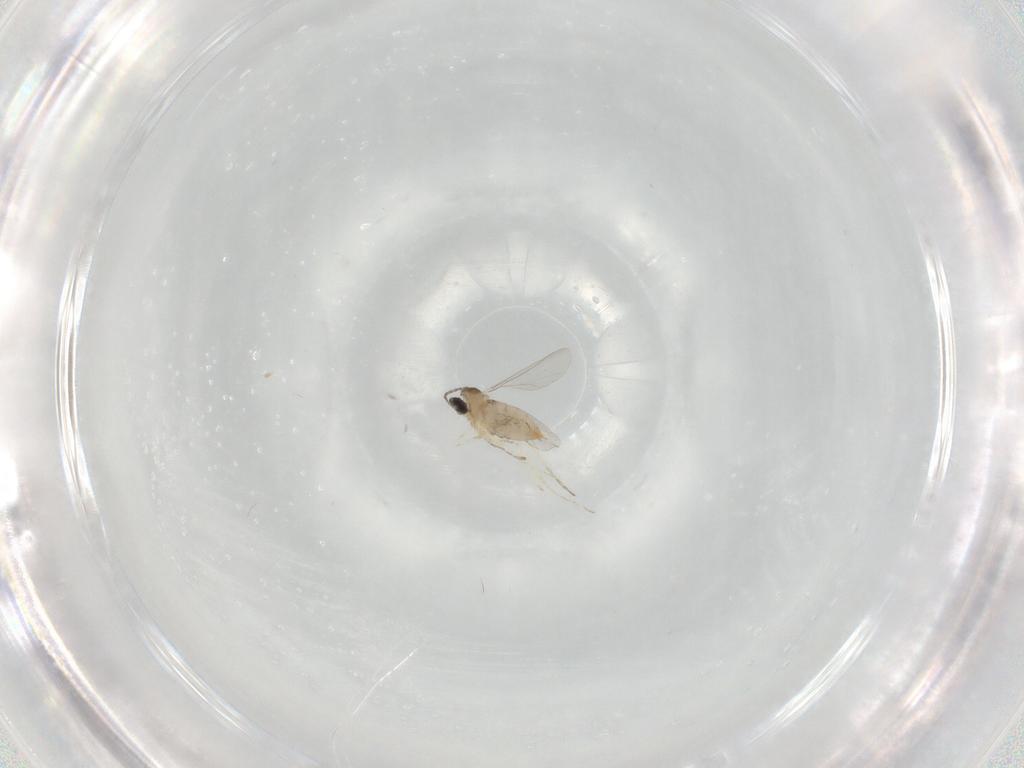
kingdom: Animalia
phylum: Arthropoda
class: Insecta
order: Diptera
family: Cecidomyiidae
